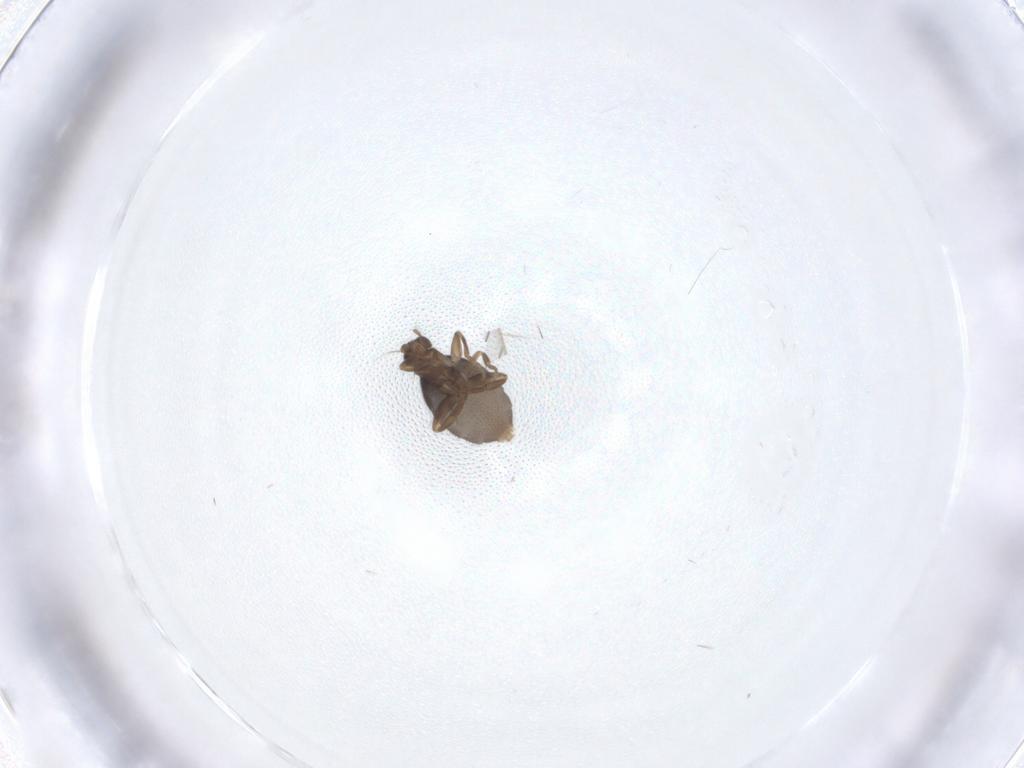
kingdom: Animalia
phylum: Arthropoda
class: Insecta
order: Diptera
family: Phoridae
